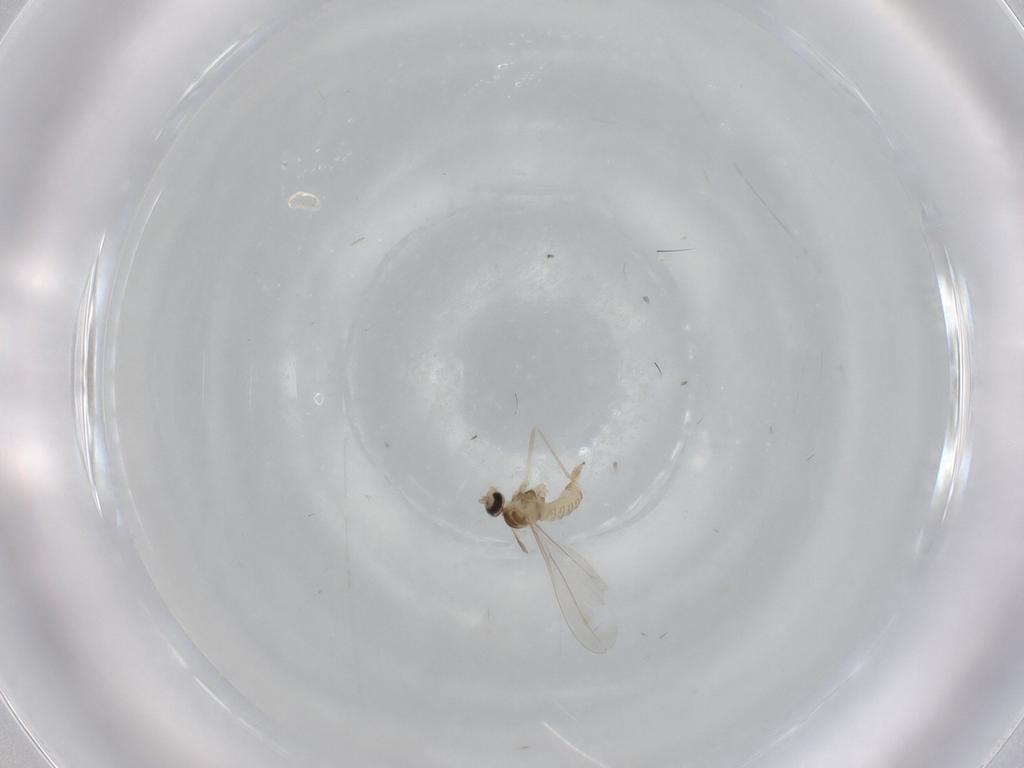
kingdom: Animalia
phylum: Arthropoda
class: Insecta
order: Diptera
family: Cecidomyiidae
